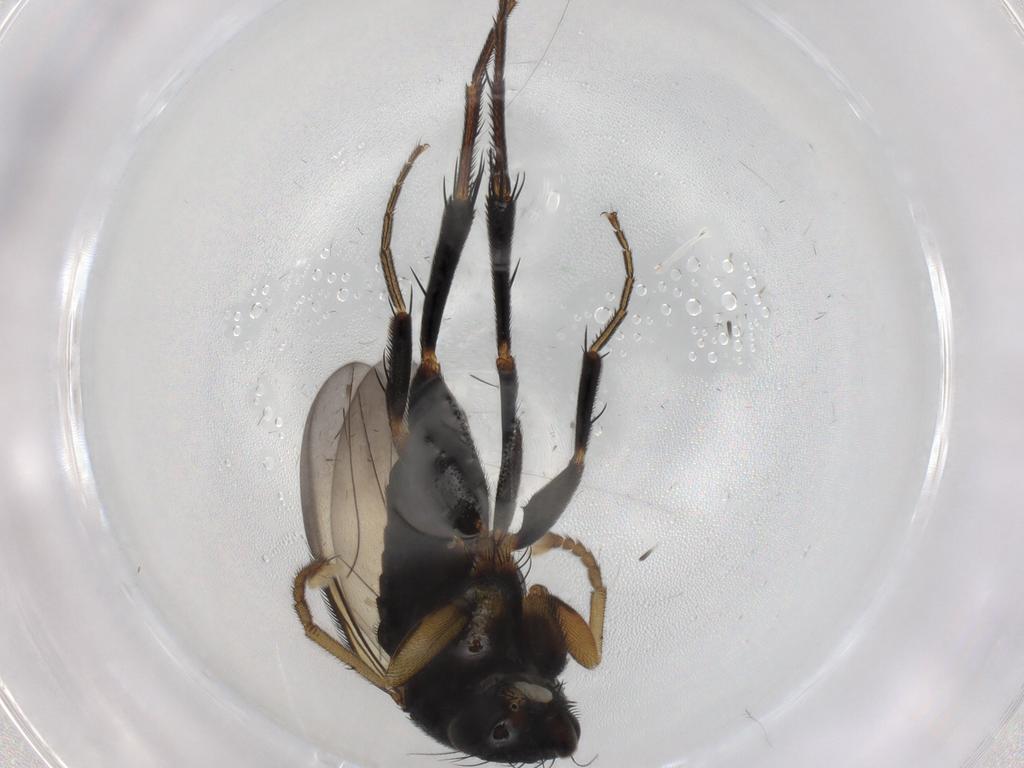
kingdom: Animalia
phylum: Arthropoda
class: Insecta
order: Diptera
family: Phoridae
